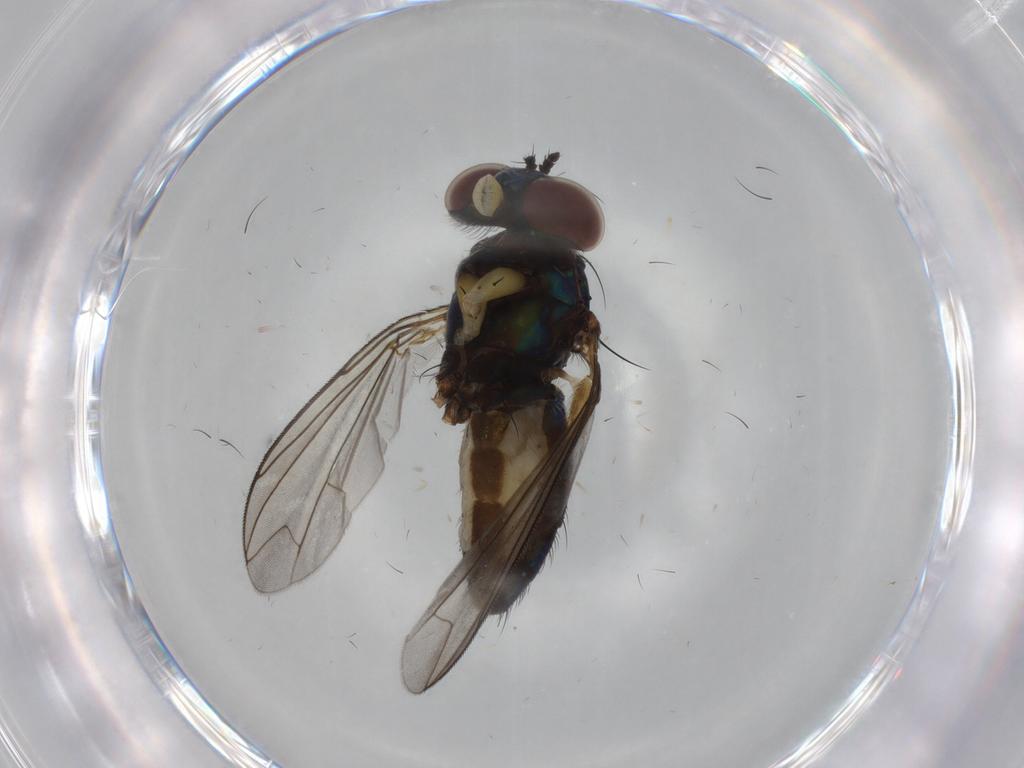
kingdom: Animalia
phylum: Arthropoda
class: Insecta
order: Diptera
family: Dolichopodidae
